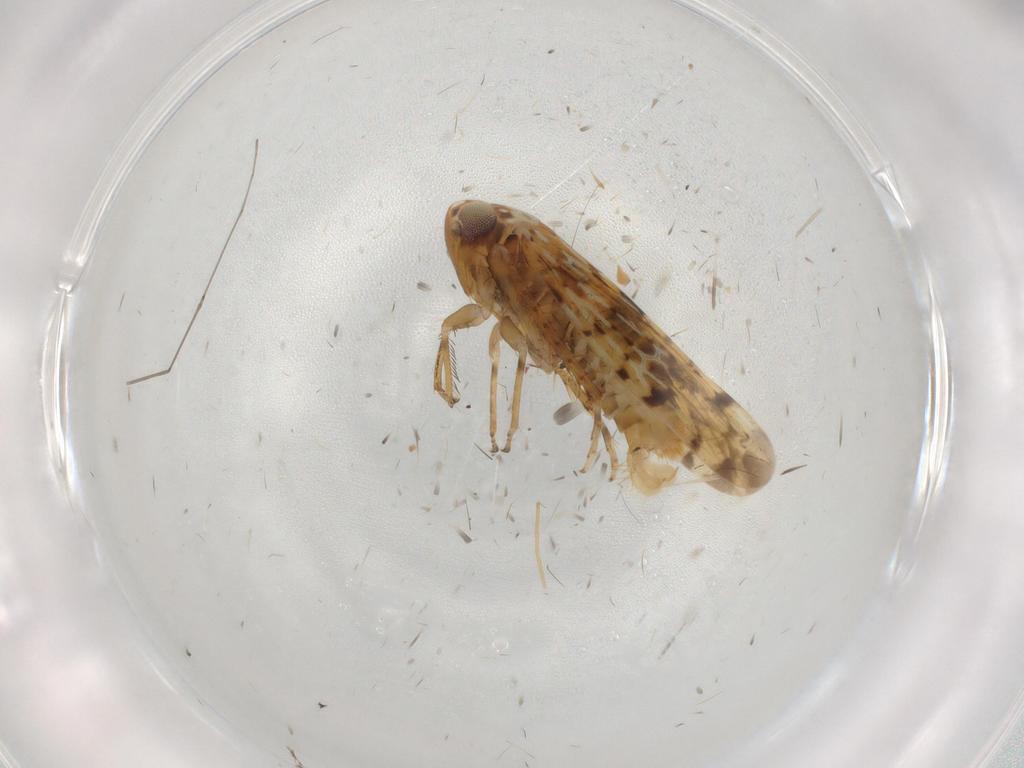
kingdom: Animalia
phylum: Arthropoda
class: Insecta
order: Hemiptera
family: Cicadellidae
